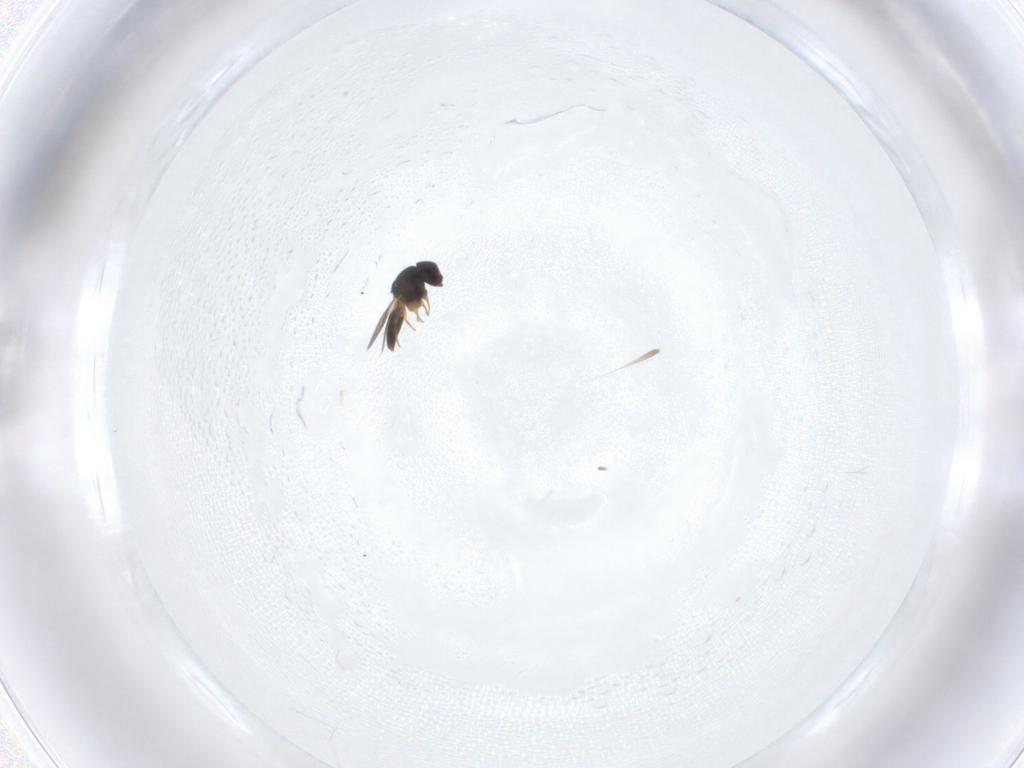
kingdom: Animalia
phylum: Arthropoda
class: Insecta
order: Hymenoptera
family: Scelionidae
